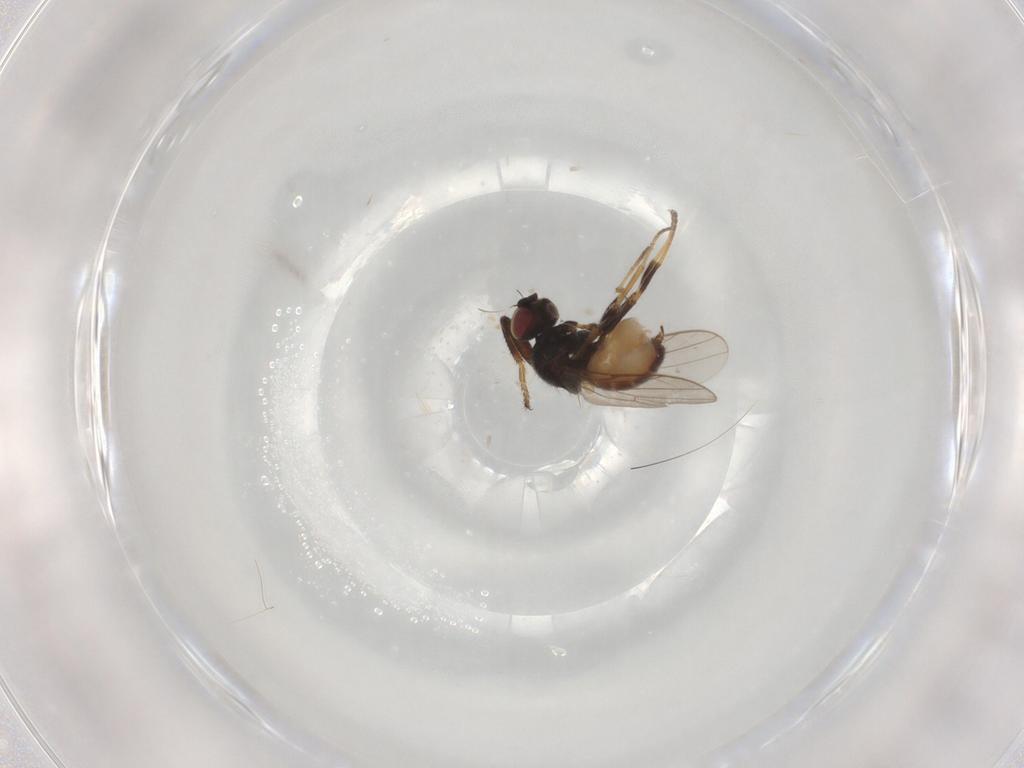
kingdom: Animalia
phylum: Arthropoda
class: Insecta
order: Diptera
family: Chloropidae
